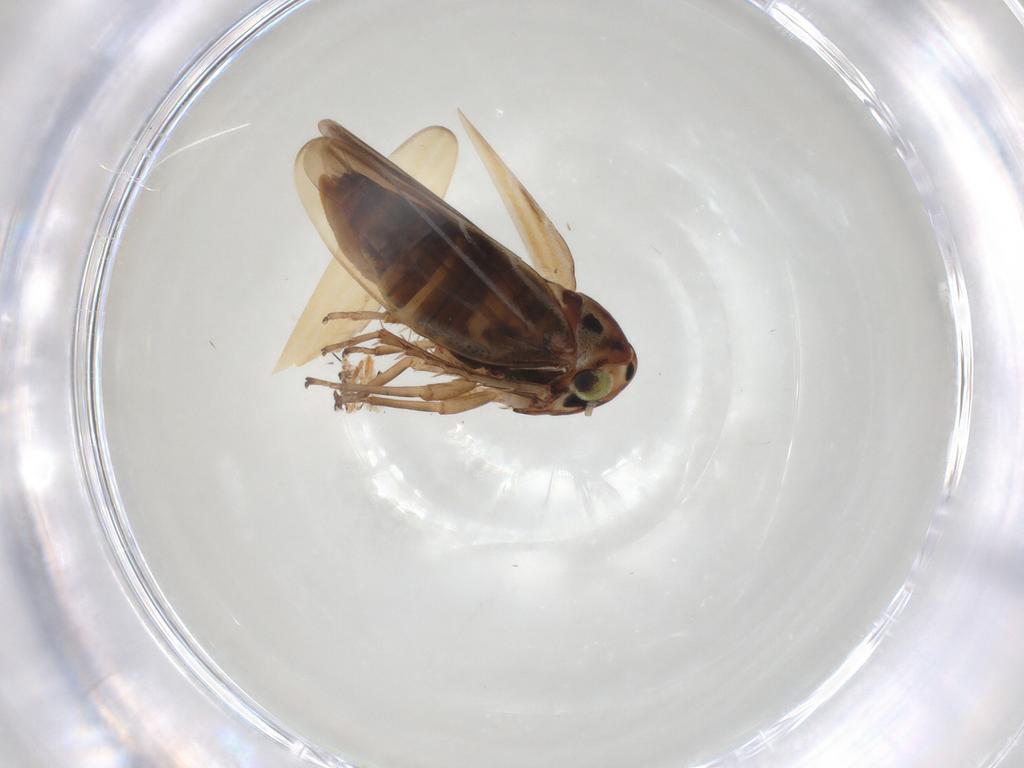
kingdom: Animalia
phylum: Arthropoda
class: Insecta
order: Hemiptera
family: Cicadellidae
